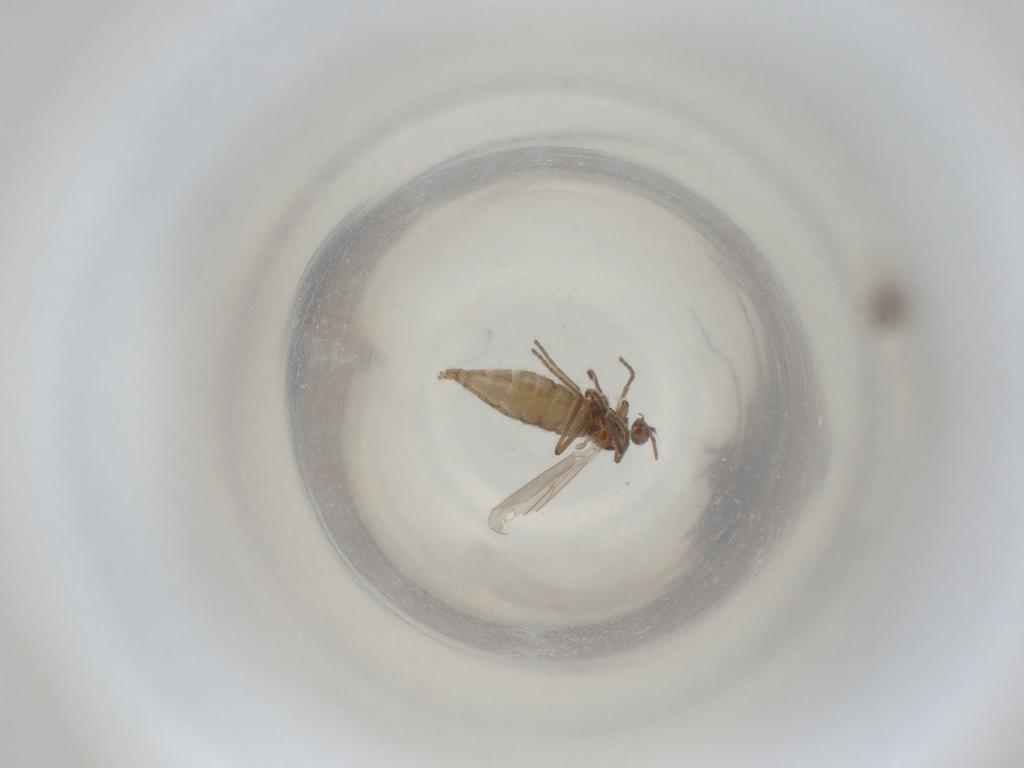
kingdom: Animalia
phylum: Arthropoda
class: Insecta
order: Diptera
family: Cecidomyiidae
